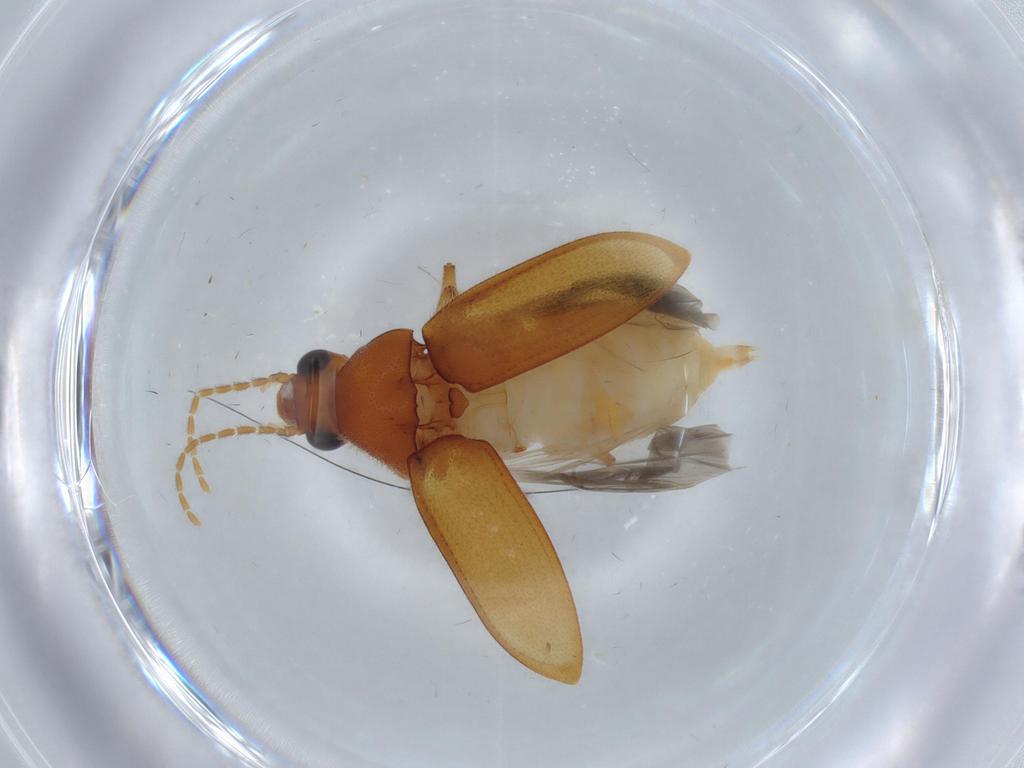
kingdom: Animalia
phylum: Arthropoda
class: Insecta
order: Coleoptera
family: Ptilodactylidae
